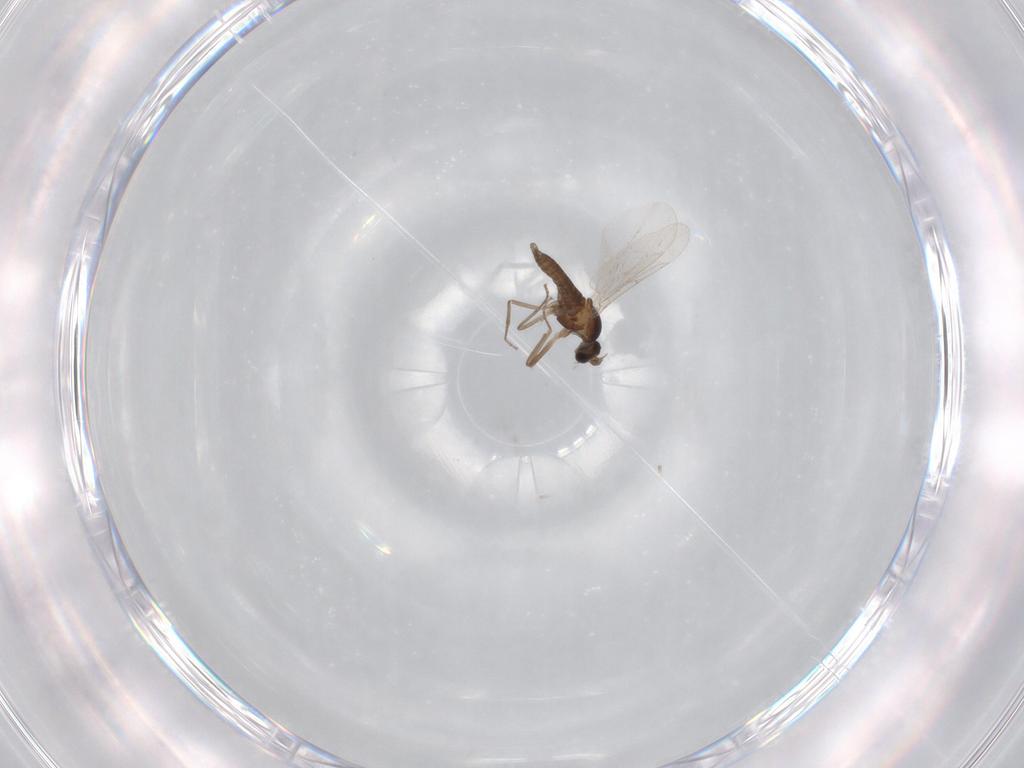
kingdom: Animalia
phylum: Arthropoda
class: Insecta
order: Diptera
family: Cecidomyiidae
